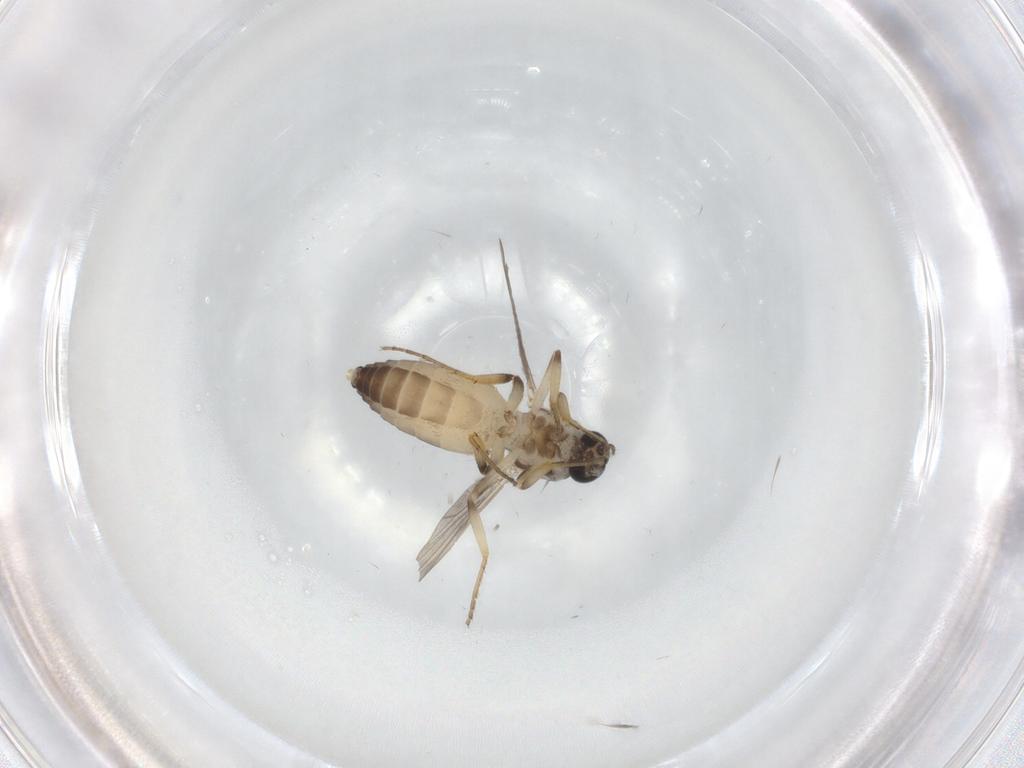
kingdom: Animalia
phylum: Arthropoda
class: Insecta
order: Diptera
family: Ceratopogonidae
